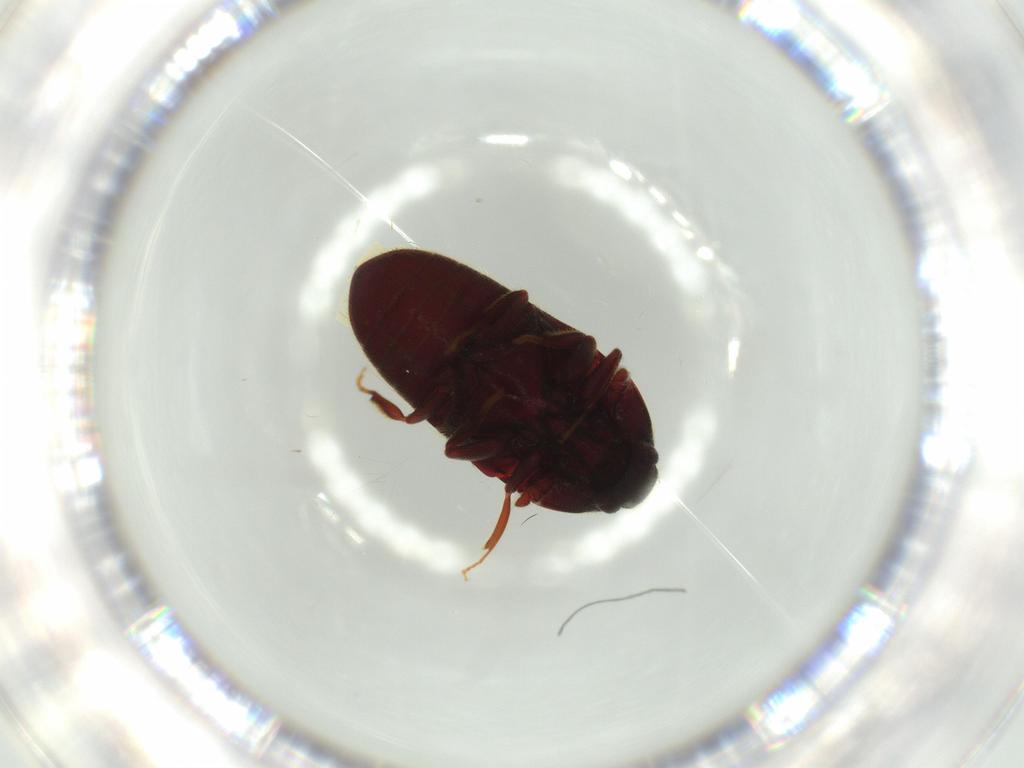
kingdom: Animalia
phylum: Arthropoda
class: Insecta
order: Coleoptera
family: Throscidae
